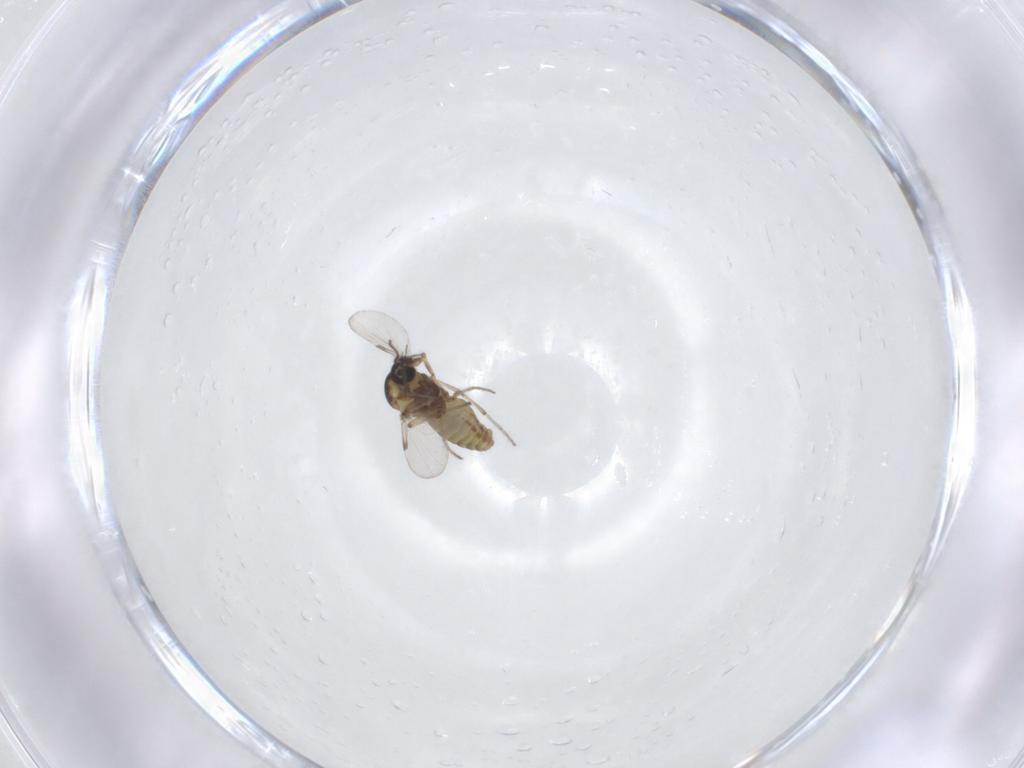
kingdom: Animalia
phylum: Arthropoda
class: Insecta
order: Diptera
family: Ceratopogonidae
